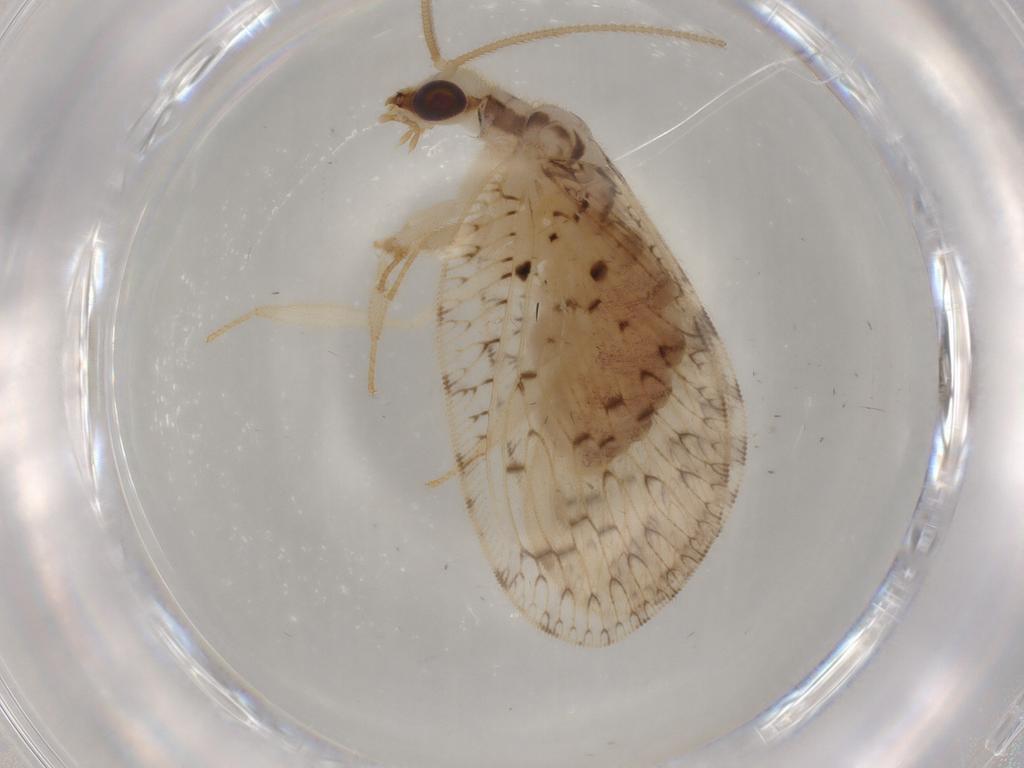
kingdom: Animalia
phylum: Arthropoda
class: Insecta
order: Neuroptera
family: Hemerobiidae
